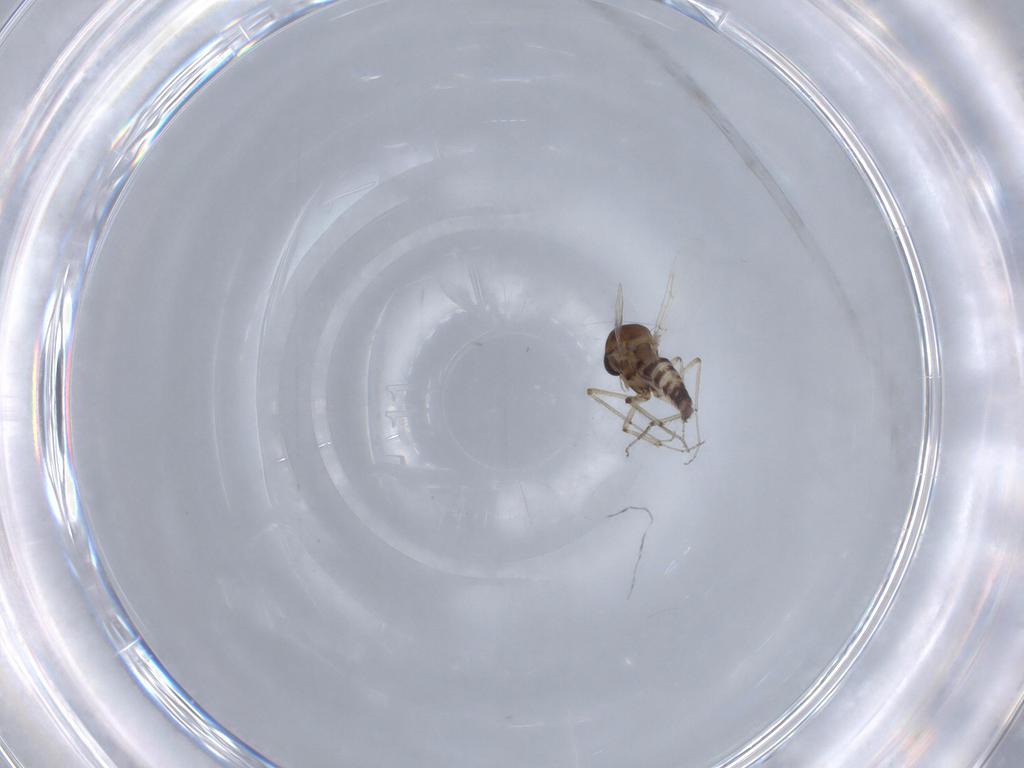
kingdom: Animalia
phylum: Arthropoda
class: Insecta
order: Diptera
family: Ceratopogonidae
